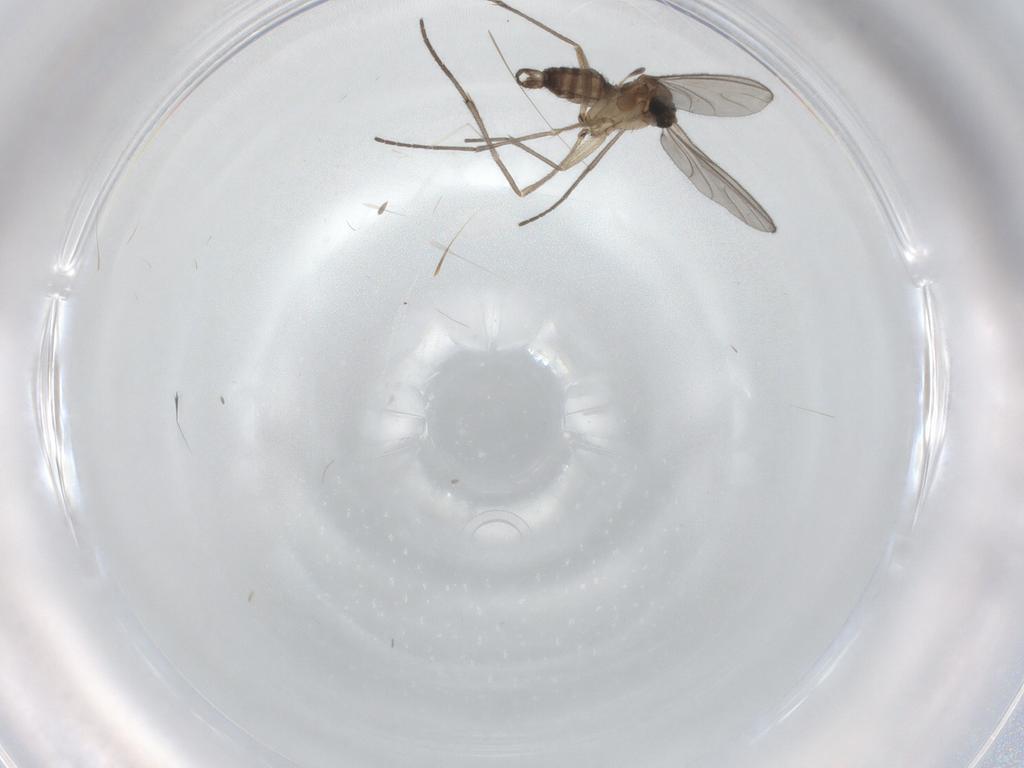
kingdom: Animalia
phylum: Arthropoda
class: Insecta
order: Diptera
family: Sciaridae
